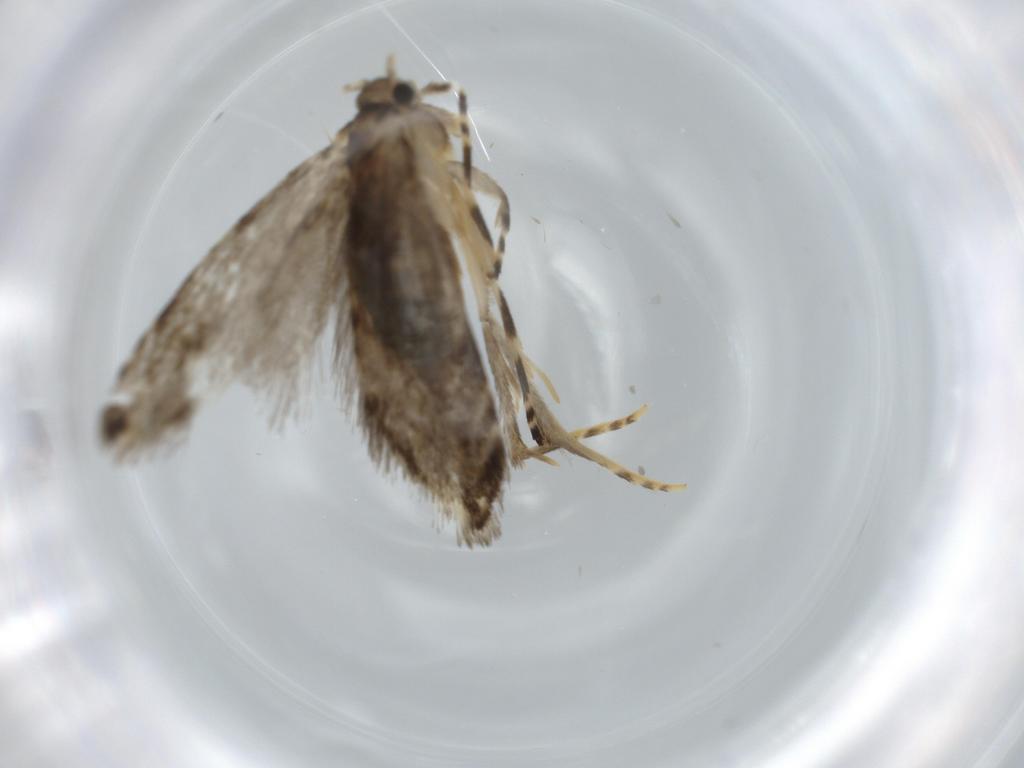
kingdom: Animalia
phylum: Arthropoda
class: Insecta
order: Lepidoptera
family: Tineidae
